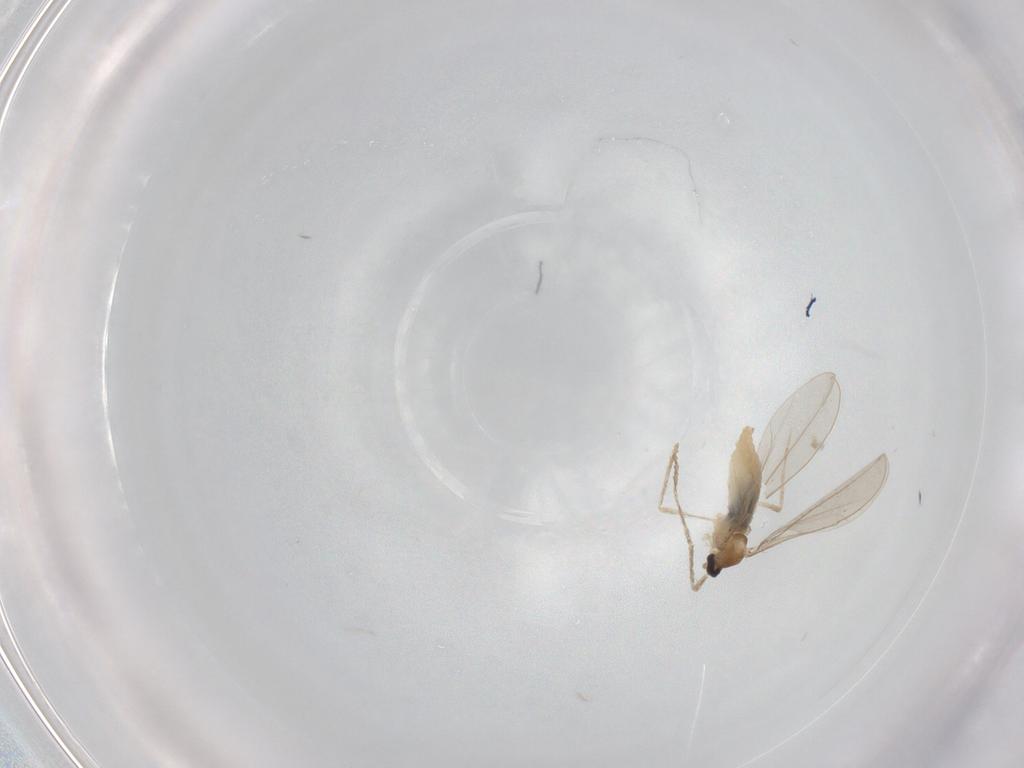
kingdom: Animalia
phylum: Arthropoda
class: Insecta
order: Diptera
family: Cecidomyiidae
